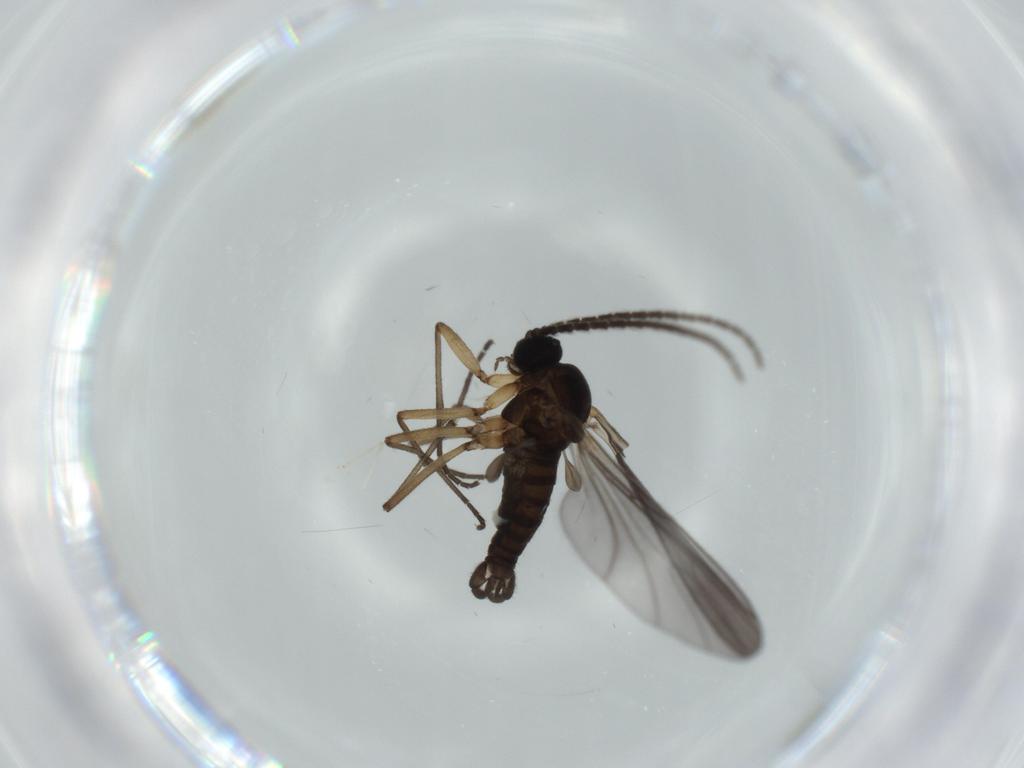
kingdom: Animalia
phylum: Arthropoda
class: Insecta
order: Diptera
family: Sciaridae
